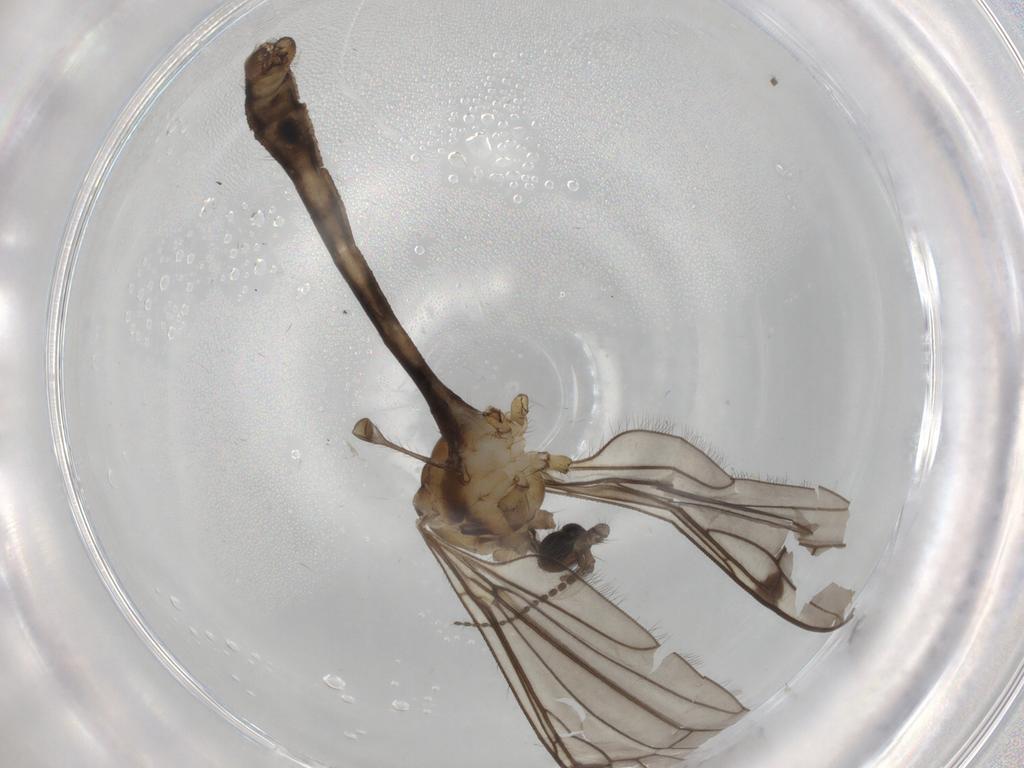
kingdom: Animalia
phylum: Arthropoda
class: Insecta
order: Diptera
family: Limoniidae
